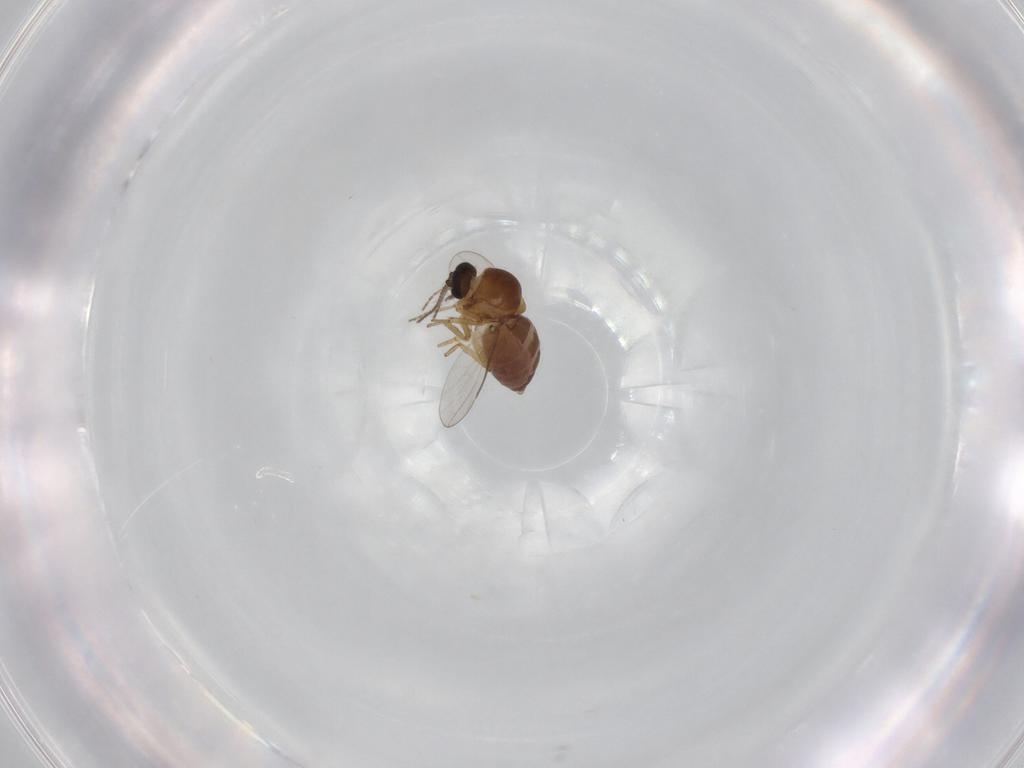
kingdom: Animalia
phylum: Arthropoda
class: Insecta
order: Diptera
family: Ceratopogonidae
